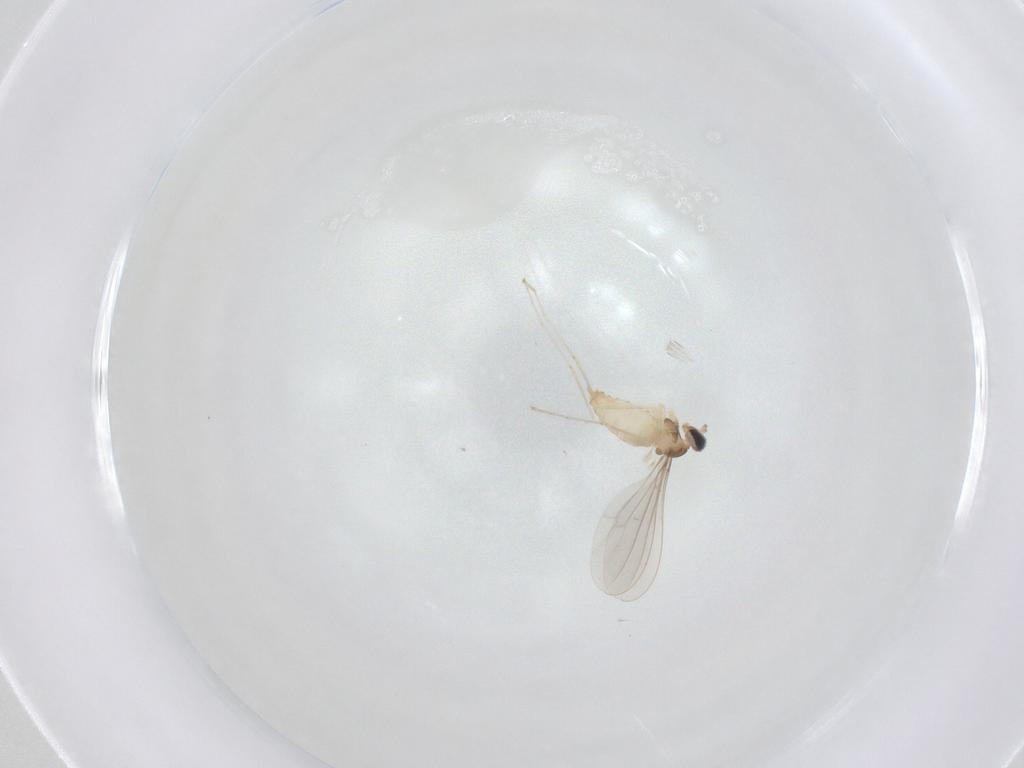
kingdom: Animalia
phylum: Arthropoda
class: Insecta
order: Diptera
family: Cecidomyiidae
